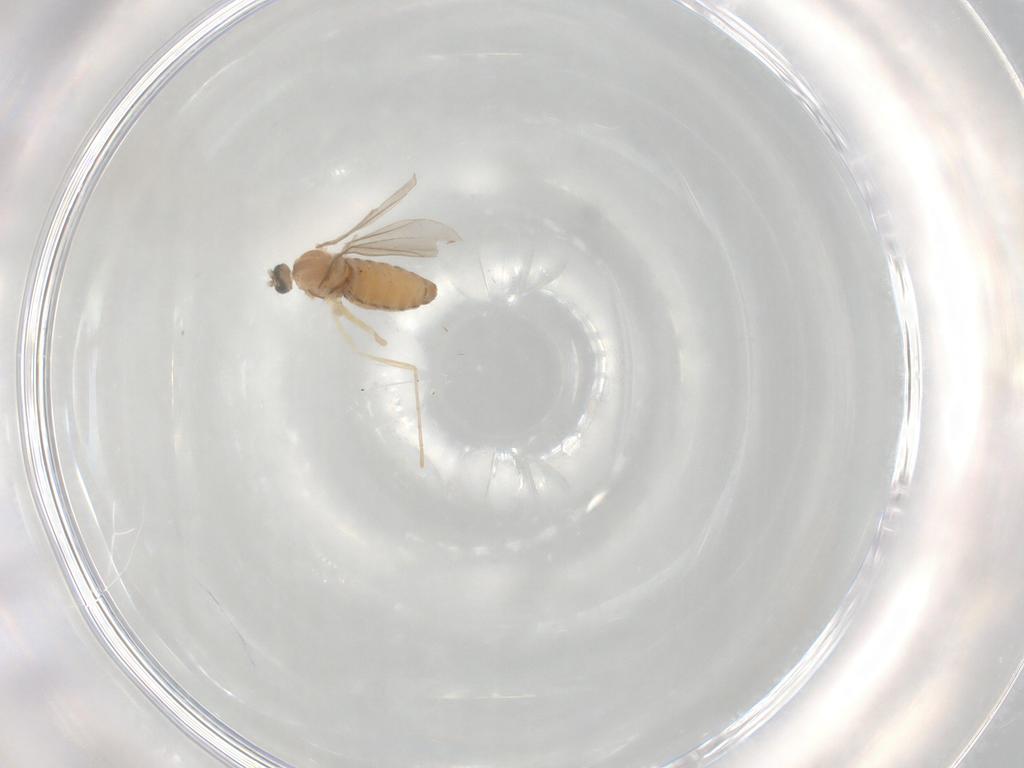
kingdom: Animalia
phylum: Arthropoda
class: Insecta
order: Diptera
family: Cecidomyiidae
